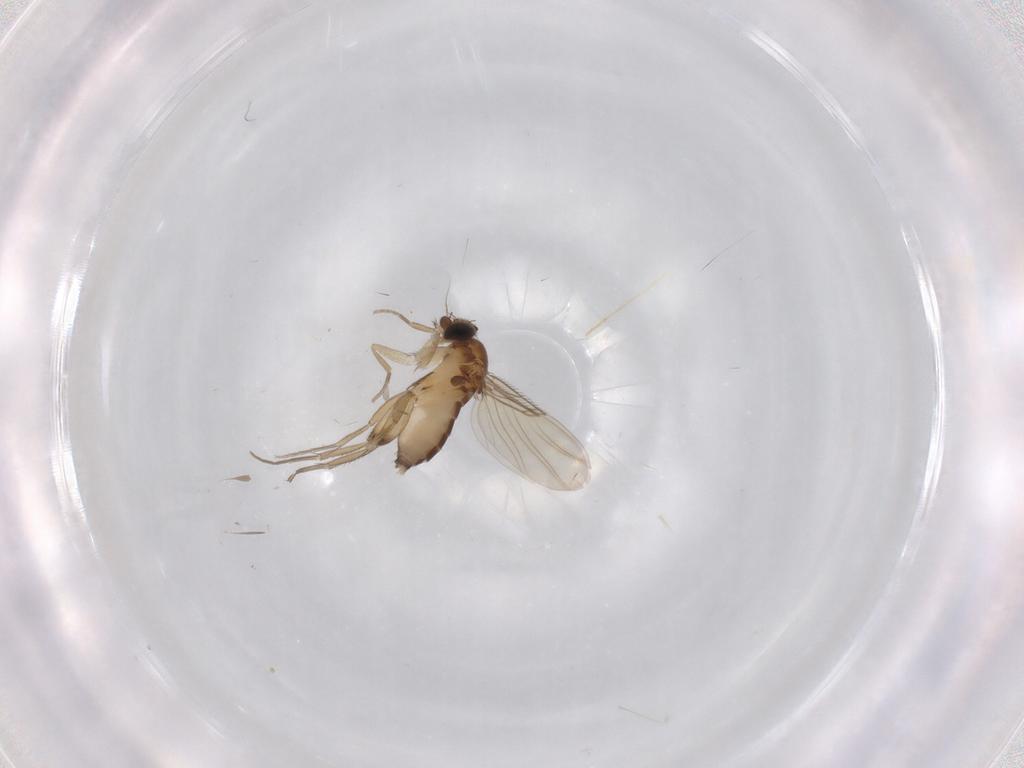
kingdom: Animalia
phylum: Arthropoda
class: Insecta
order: Diptera
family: Phoridae
